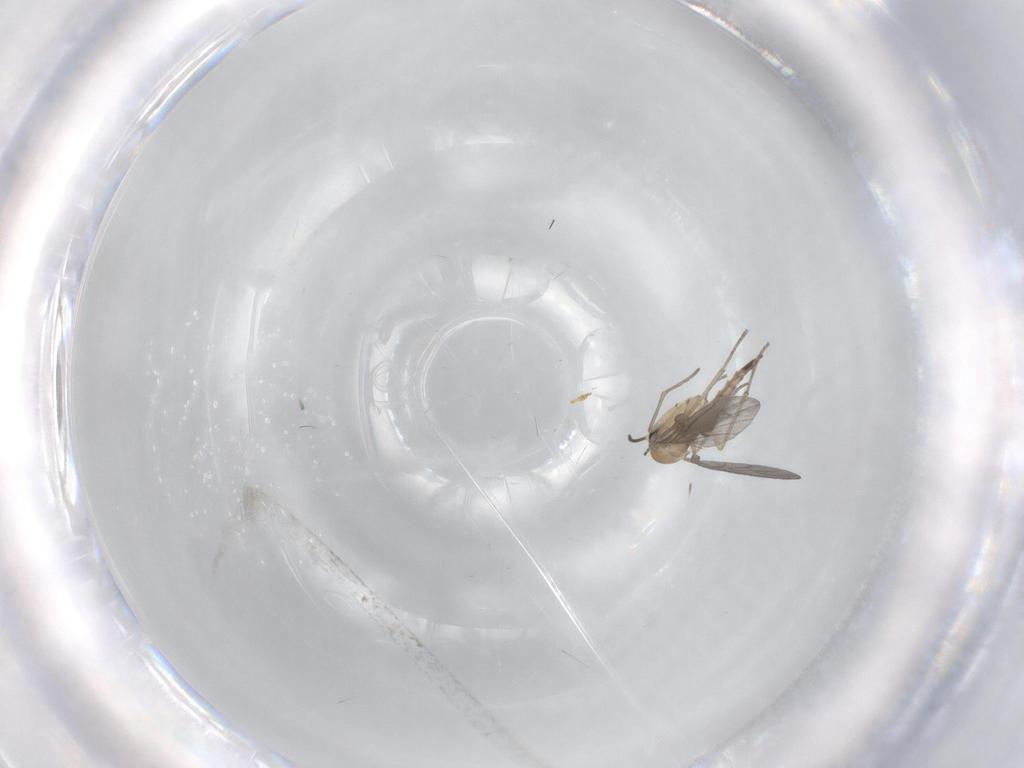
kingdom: Animalia
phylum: Arthropoda
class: Insecta
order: Diptera
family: Sciaridae
